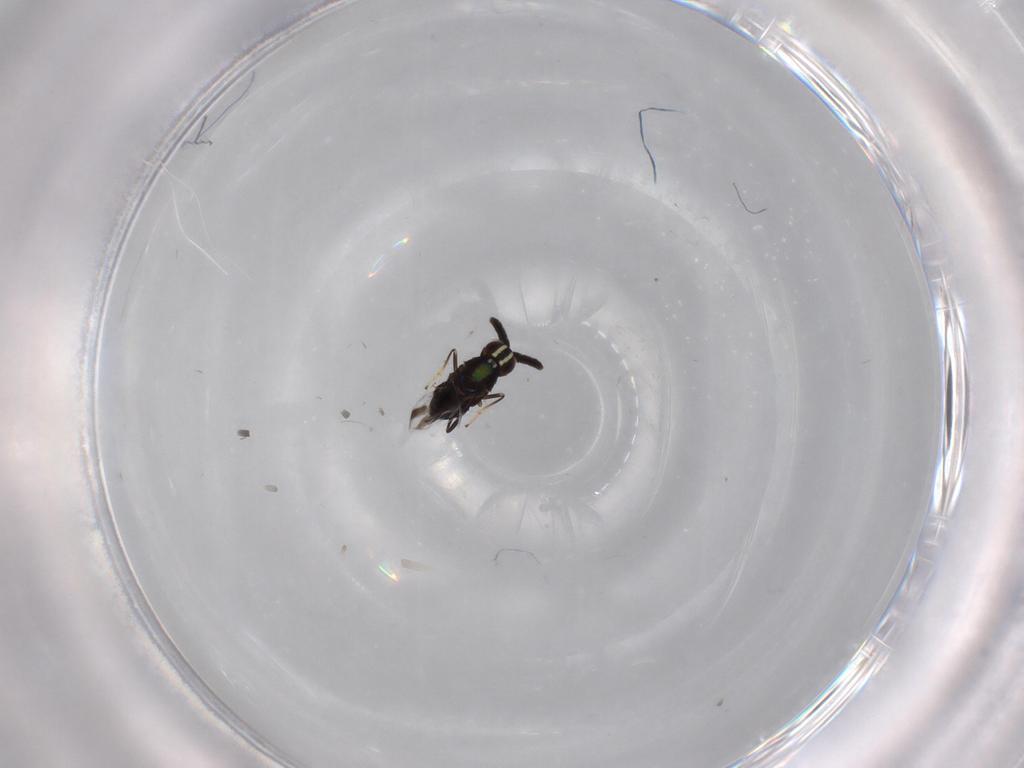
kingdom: Animalia
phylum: Arthropoda
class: Insecta
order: Hymenoptera
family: Encyrtidae
